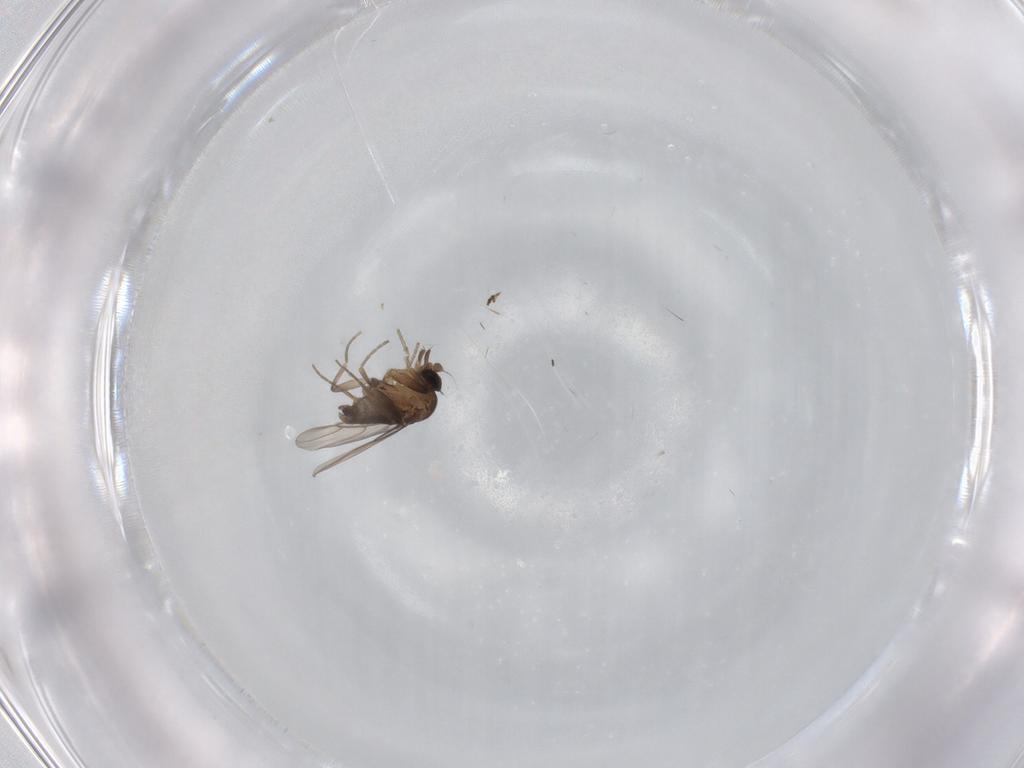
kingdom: Animalia
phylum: Arthropoda
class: Insecta
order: Diptera
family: Phoridae
